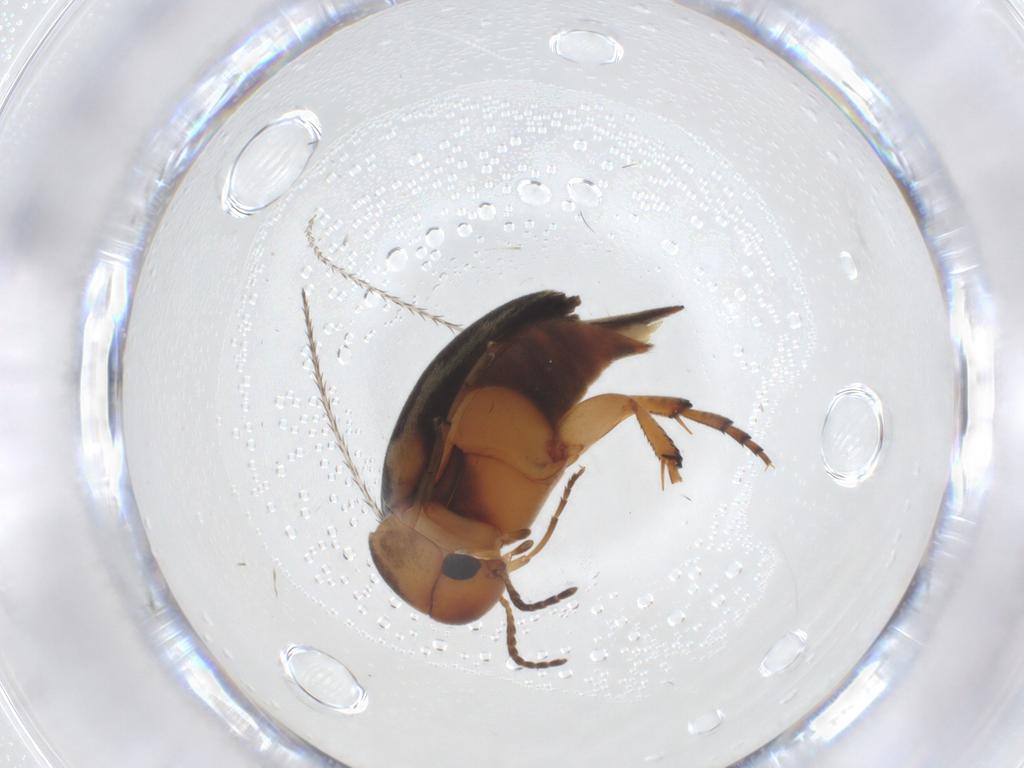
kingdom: Animalia
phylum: Arthropoda
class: Insecta
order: Coleoptera
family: Mordellidae
